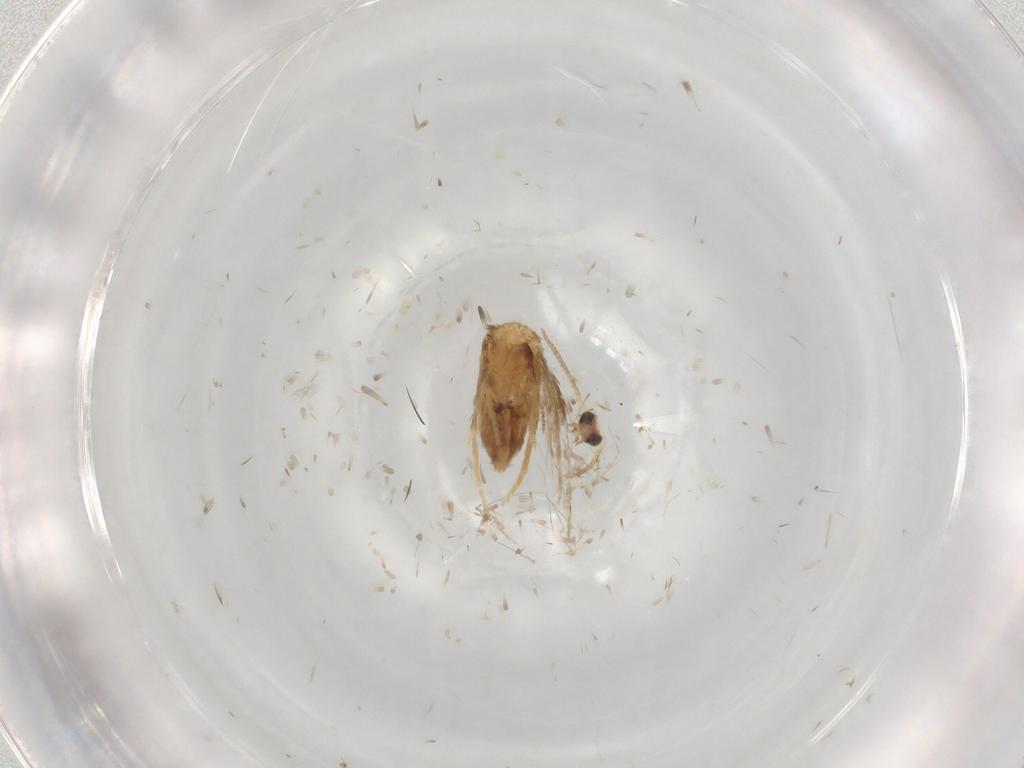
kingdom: Animalia
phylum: Arthropoda
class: Insecta
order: Lepidoptera
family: Nepticulidae
